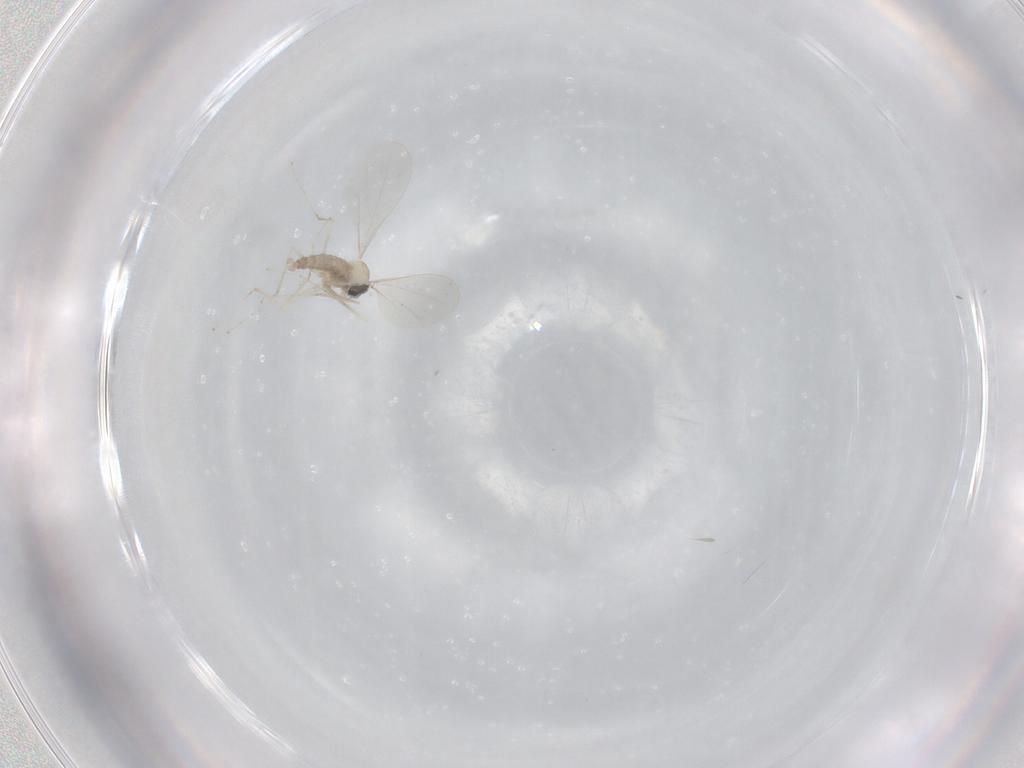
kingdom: Animalia
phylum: Arthropoda
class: Insecta
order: Diptera
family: Cecidomyiidae
